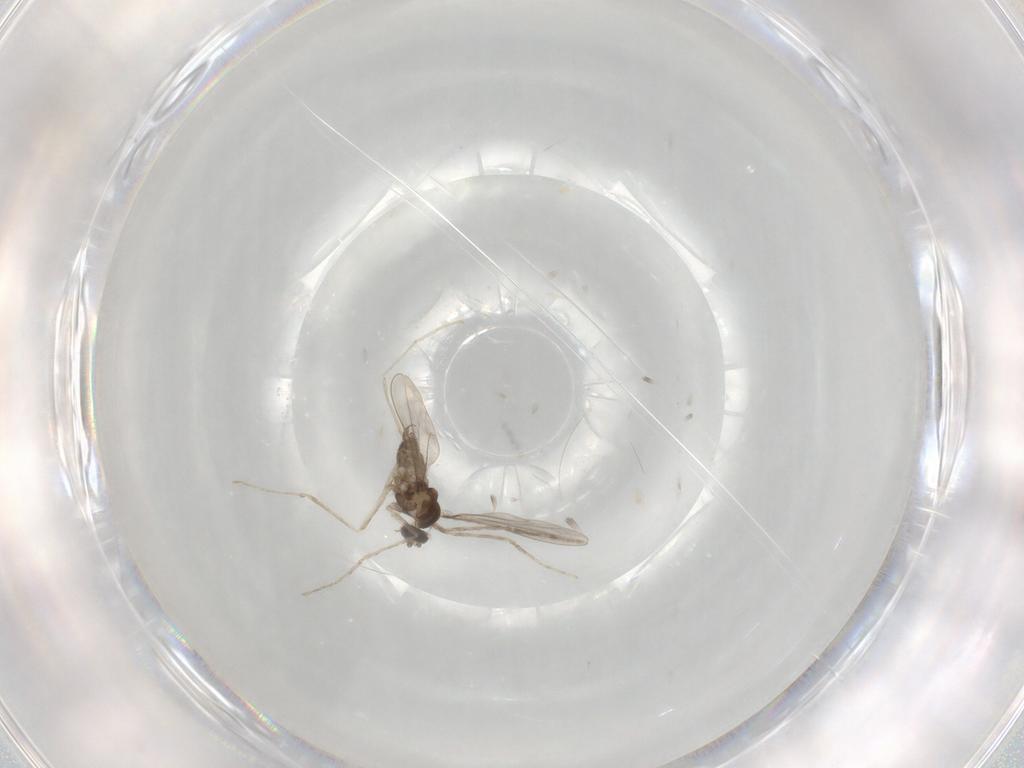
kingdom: Animalia
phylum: Arthropoda
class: Insecta
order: Diptera
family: Cecidomyiidae
